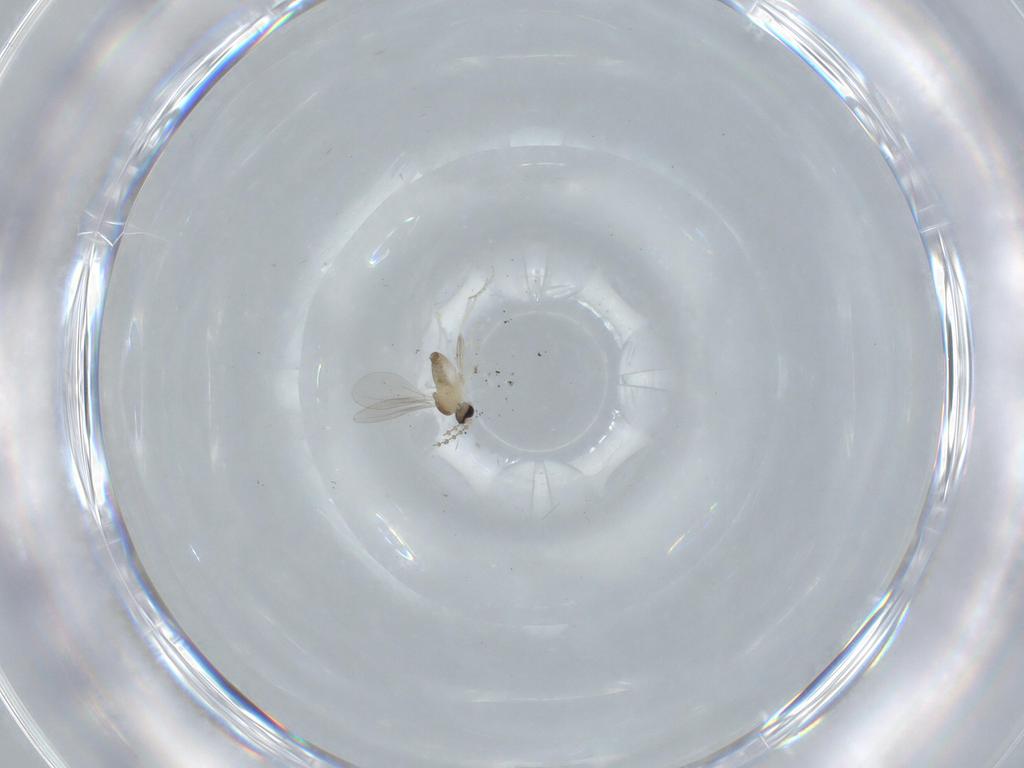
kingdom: Animalia
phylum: Arthropoda
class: Insecta
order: Diptera
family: Cecidomyiidae
